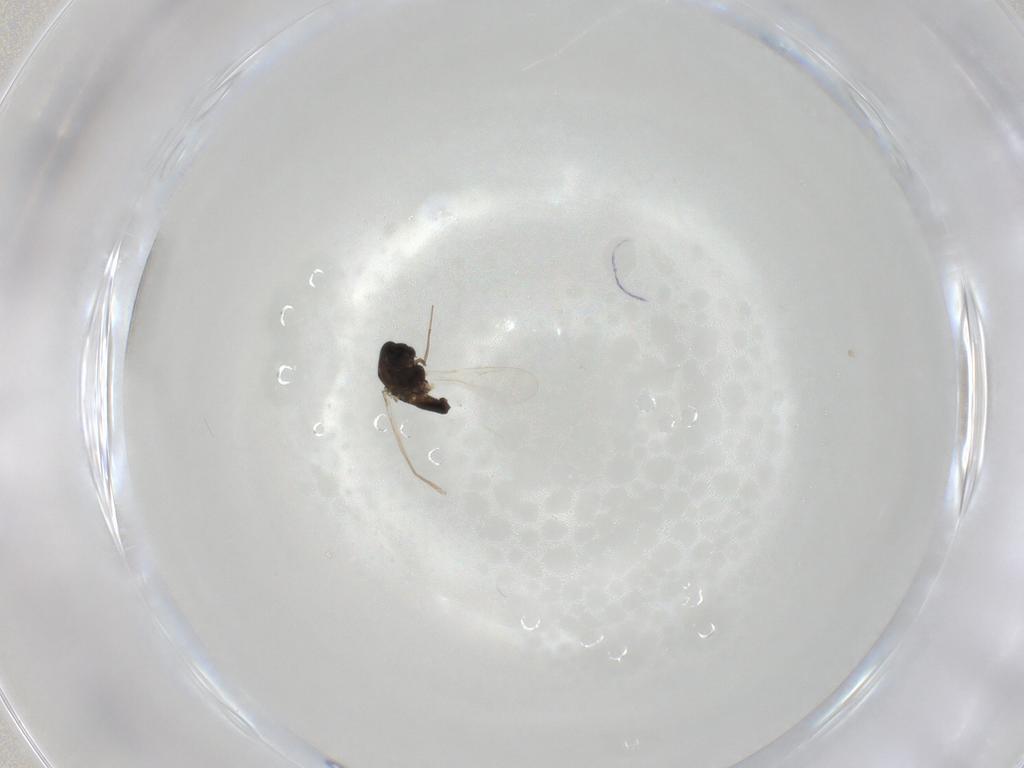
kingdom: Animalia
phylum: Arthropoda
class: Insecta
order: Diptera
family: Chironomidae
